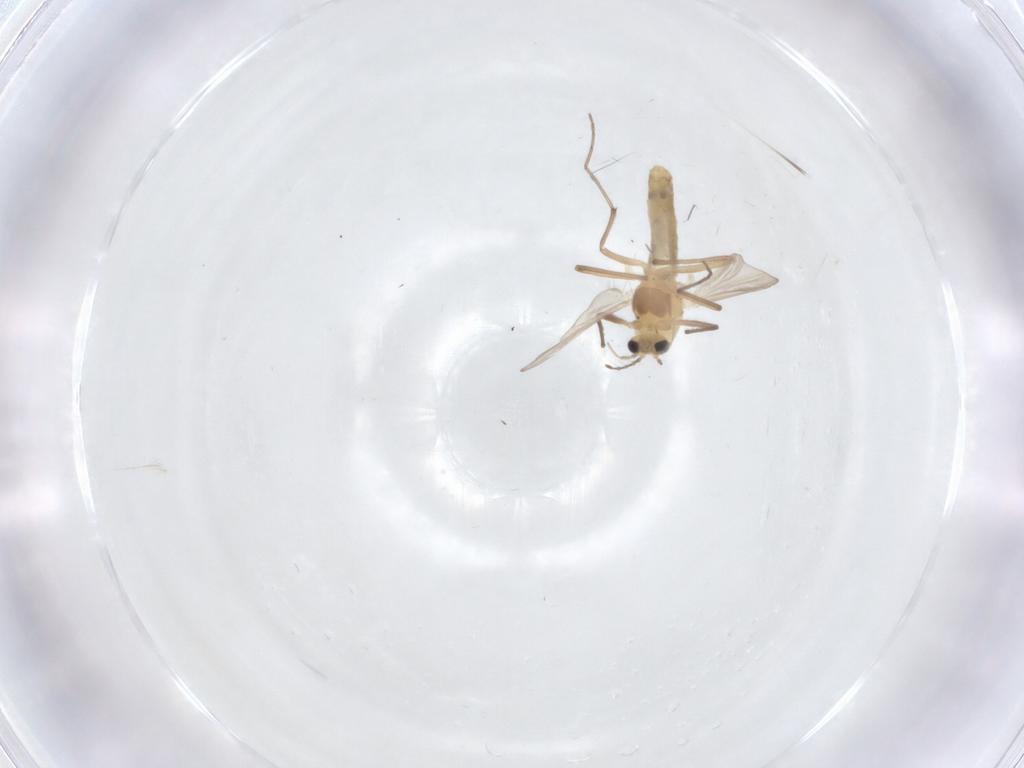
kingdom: Animalia
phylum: Arthropoda
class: Insecta
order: Diptera
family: Chironomidae
